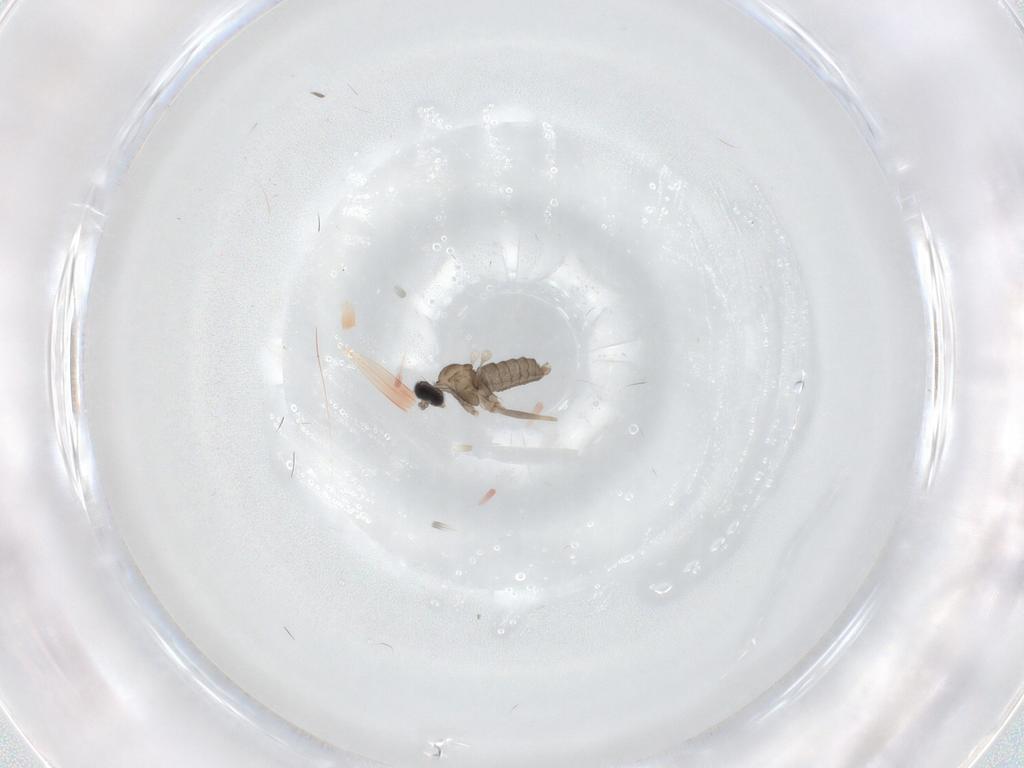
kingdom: Animalia
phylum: Arthropoda
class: Insecta
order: Diptera
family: Cecidomyiidae
